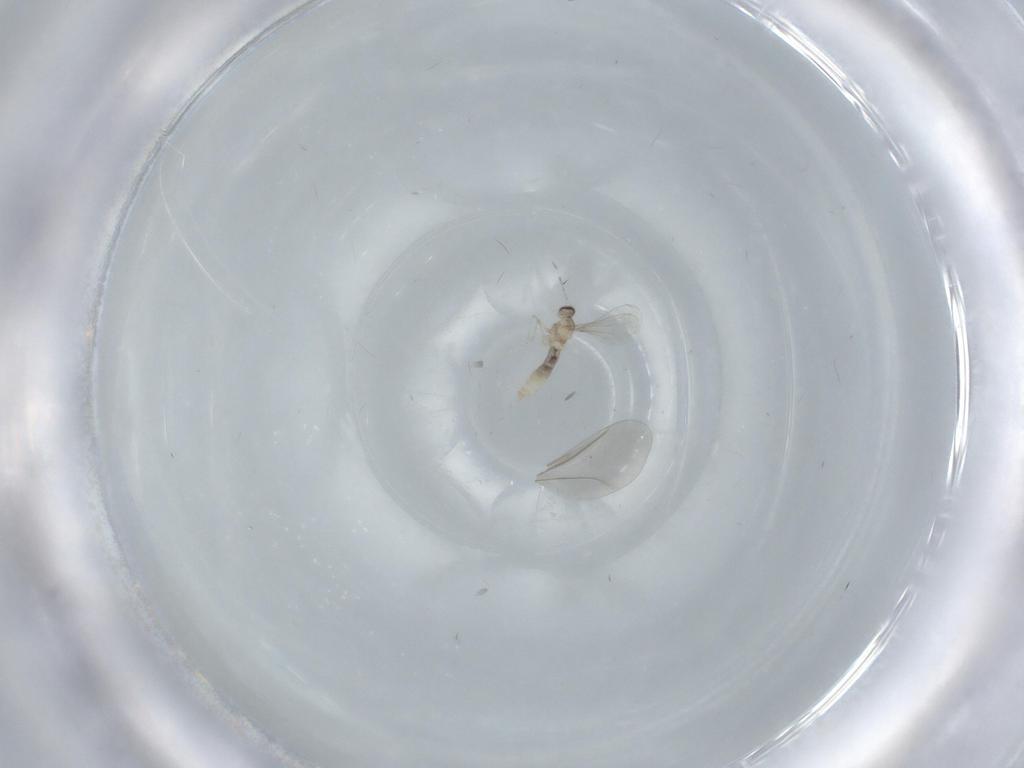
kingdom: Animalia
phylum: Arthropoda
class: Insecta
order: Diptera
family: Cecidomyiidae
